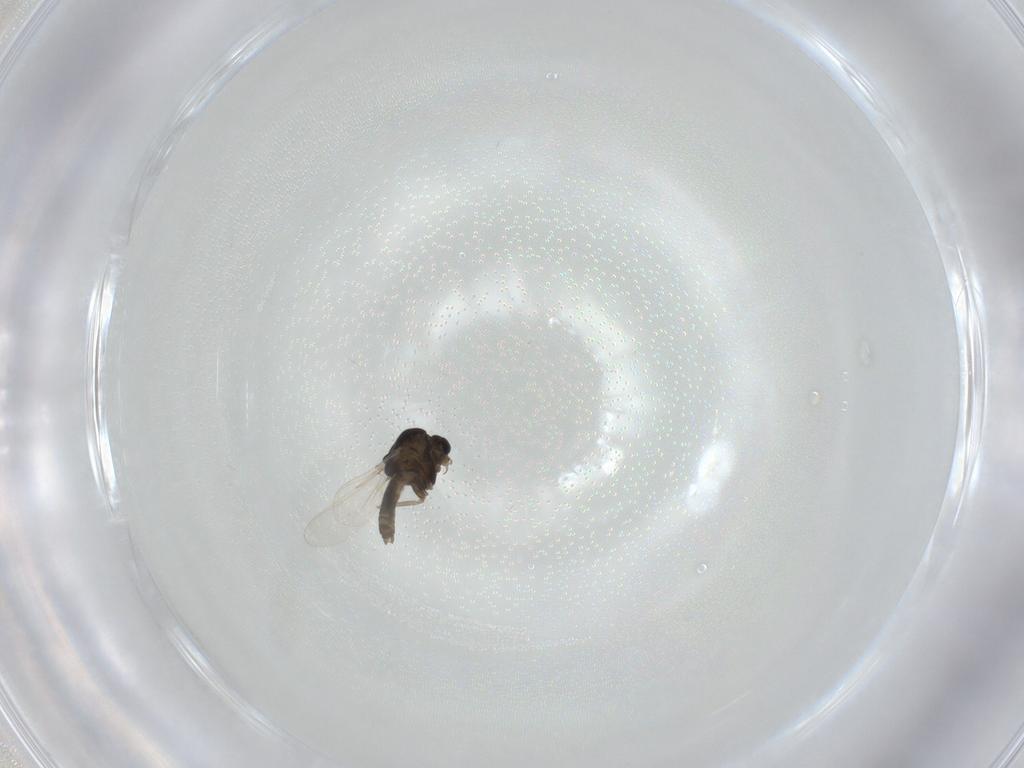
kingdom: Animalia
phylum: Arthropoda
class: Insecta
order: Diptera
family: Chironomidae
